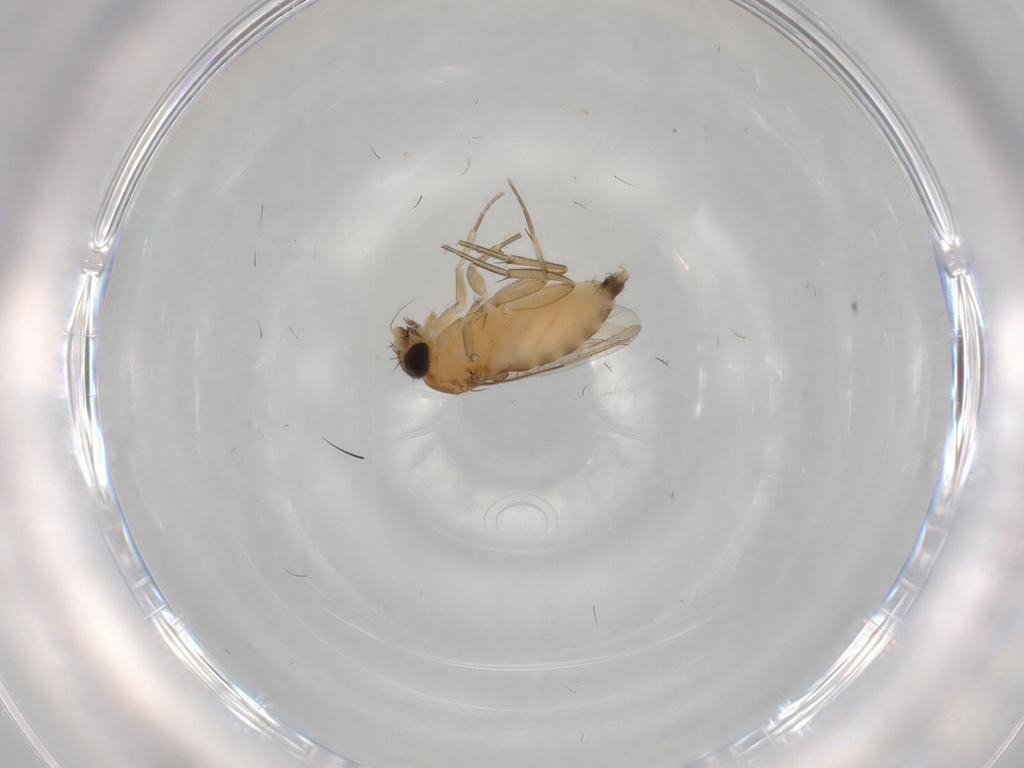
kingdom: Animalia
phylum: Arthropoda
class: Insecta
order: Diptera
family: Phoridae
